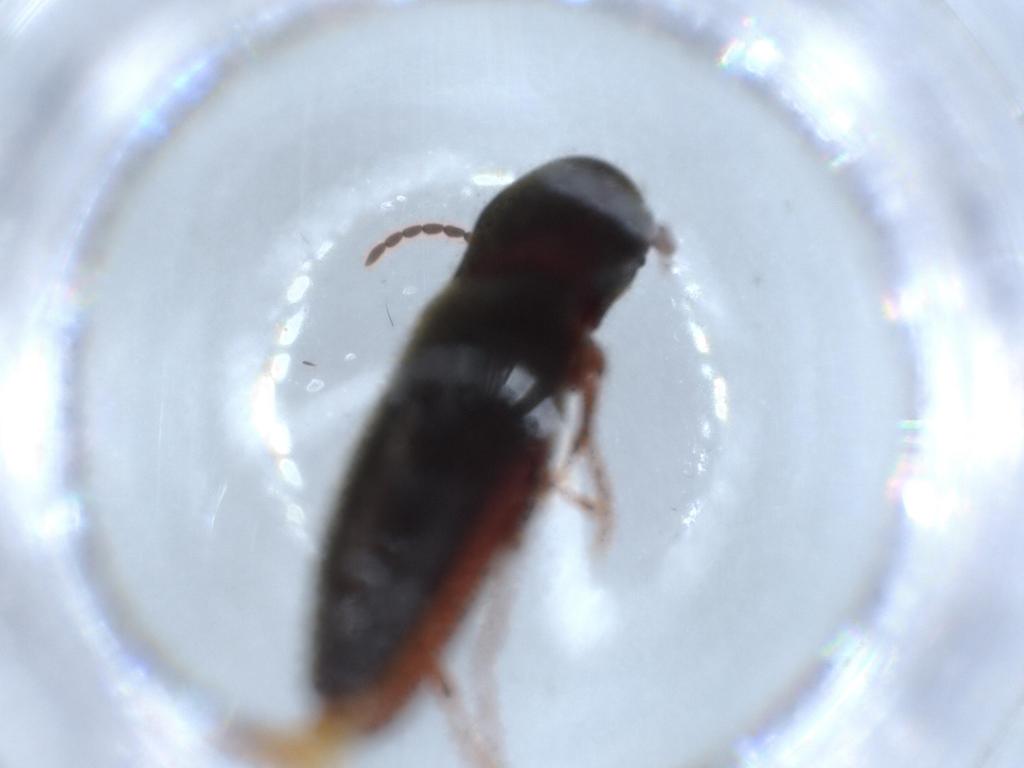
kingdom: Animalia
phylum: Arthropoda
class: Insecta
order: Coleoptera
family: Eucnemidae
